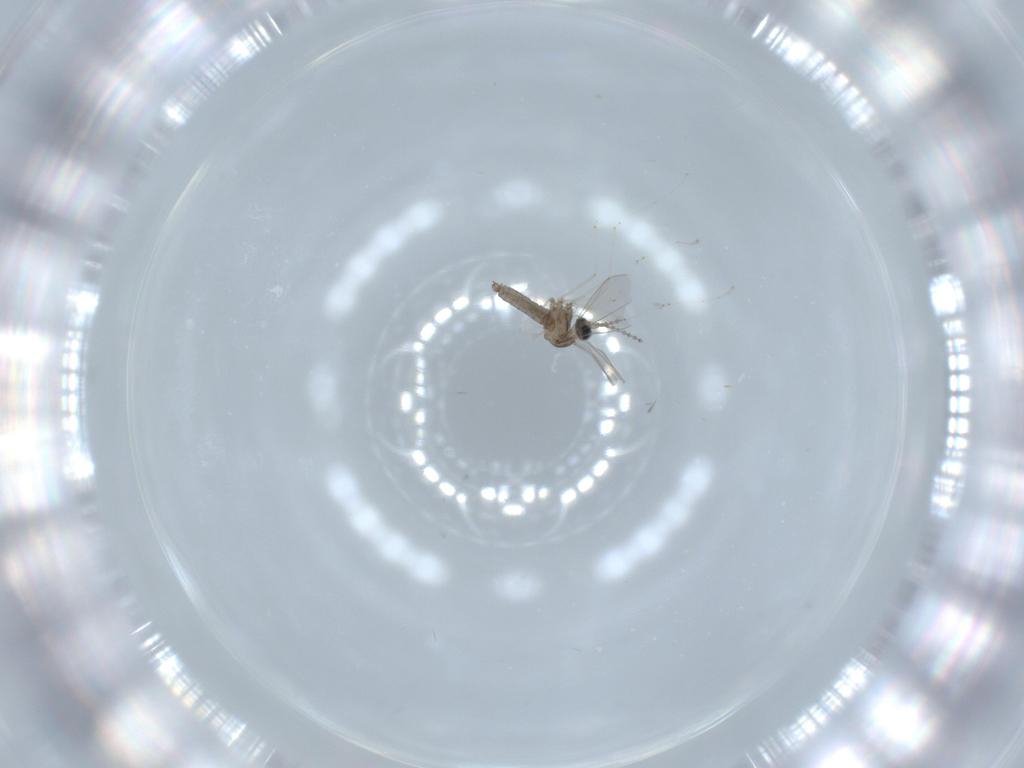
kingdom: Animalia
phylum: Arthropoda
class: Insecta
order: Diptera
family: Cecidomyiidae
